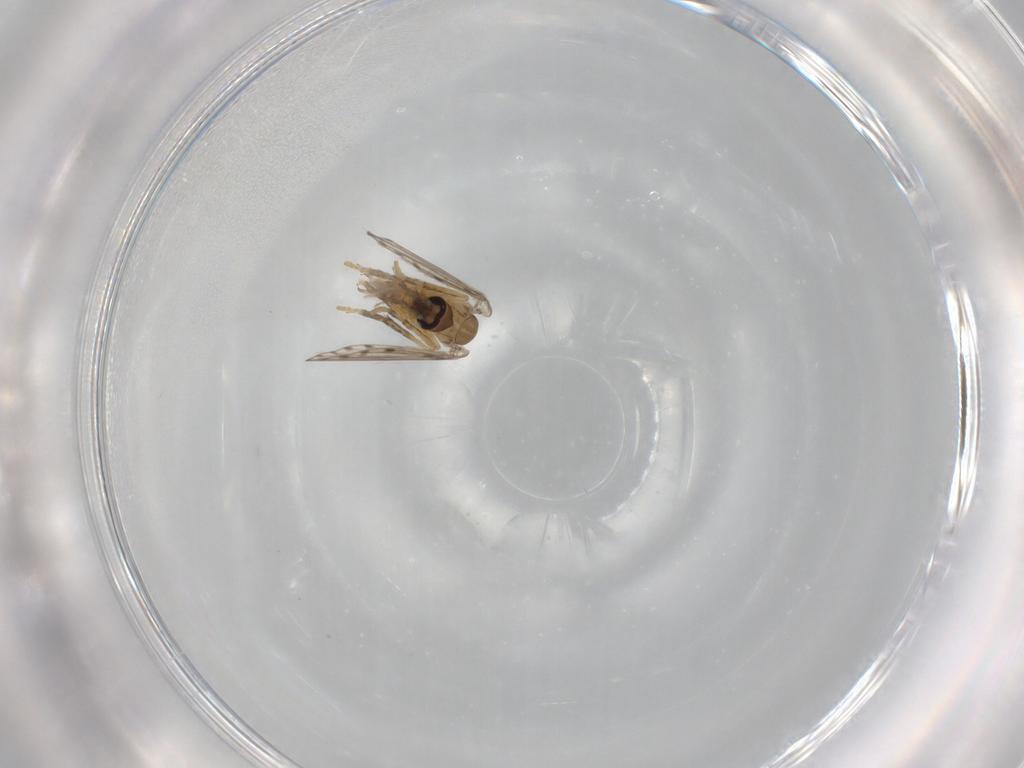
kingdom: Animalia
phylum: Arthropoda
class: Insecta
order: Diptera
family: Psychodidae
